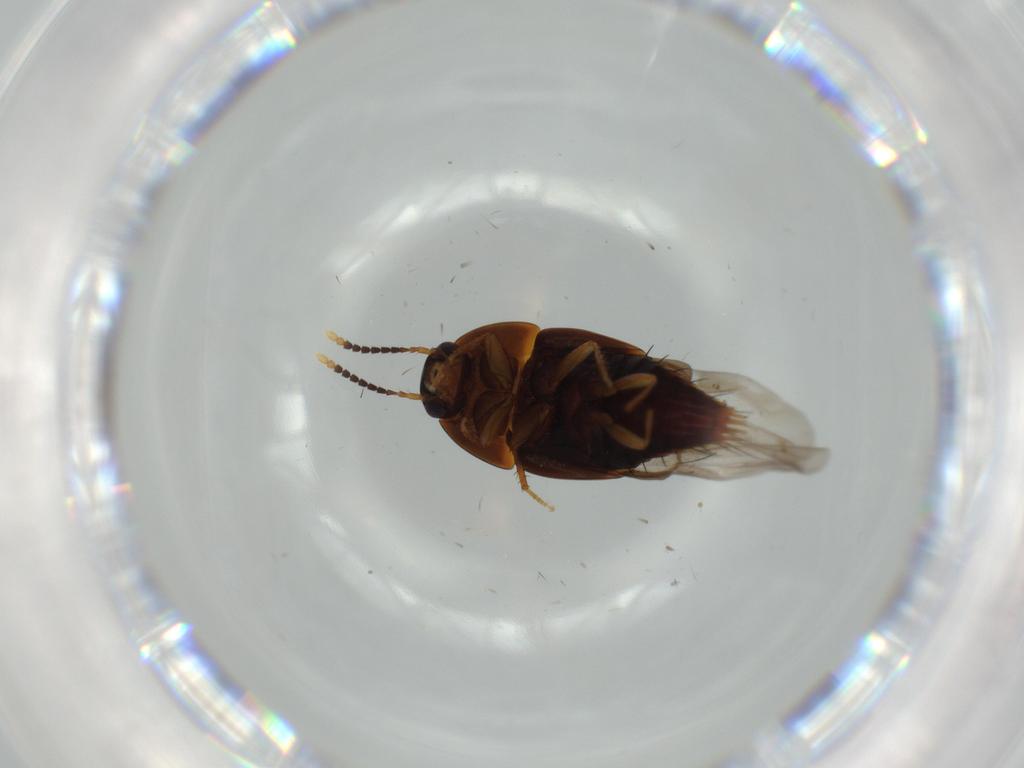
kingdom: Animalia
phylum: Arthropoda
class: Insecta
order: Coleoptera
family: Staphylinidae
